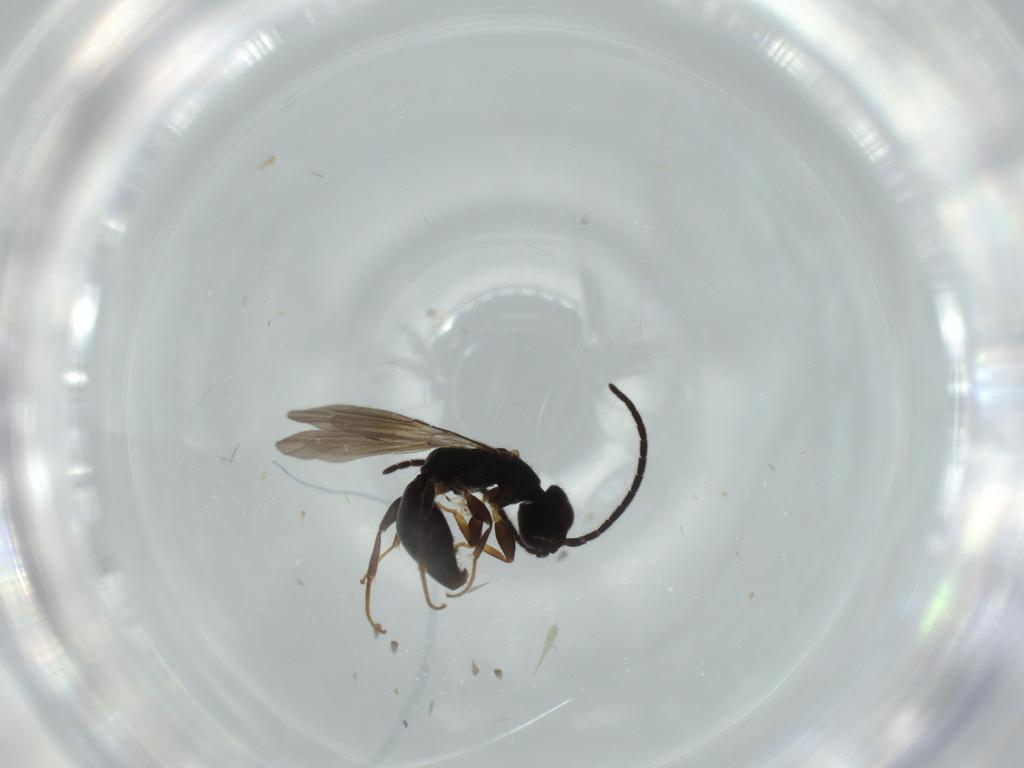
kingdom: Animalia
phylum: Arthropoda
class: Insecta
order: Hymenoptera
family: Bethylidae
